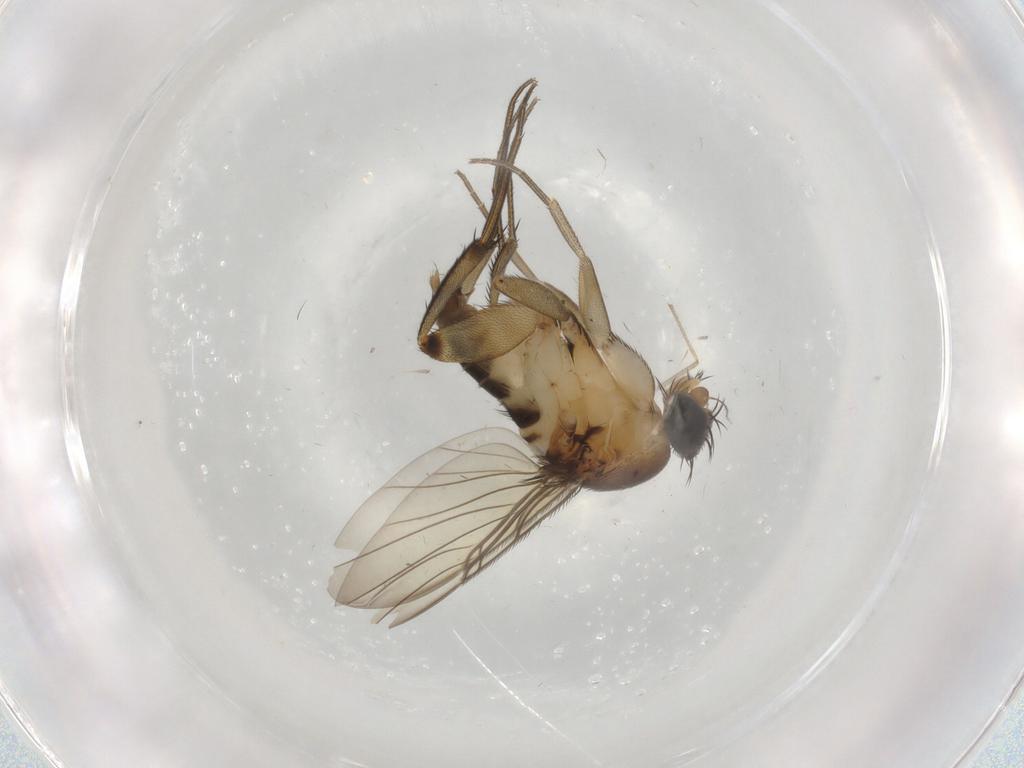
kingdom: Animalia
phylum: Arthropoda
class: Insecta
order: Diptera
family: Phoridae
